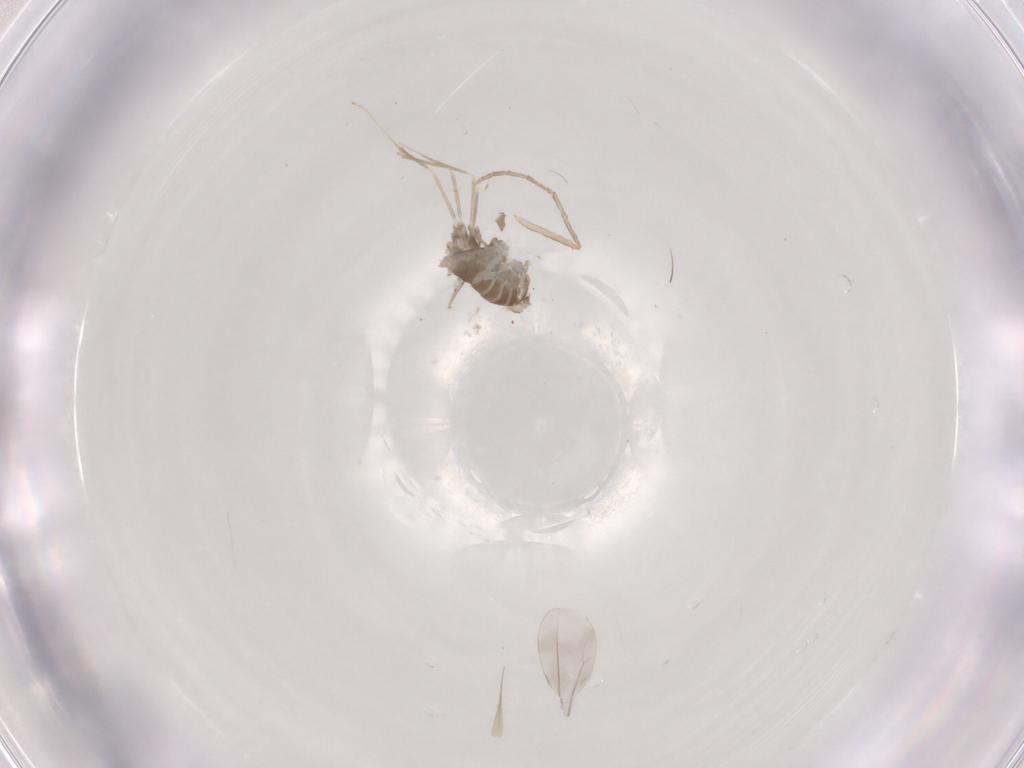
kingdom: Animalia
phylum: Arthropoda
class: Insecta
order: Diptera
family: Cecidomyiidae
